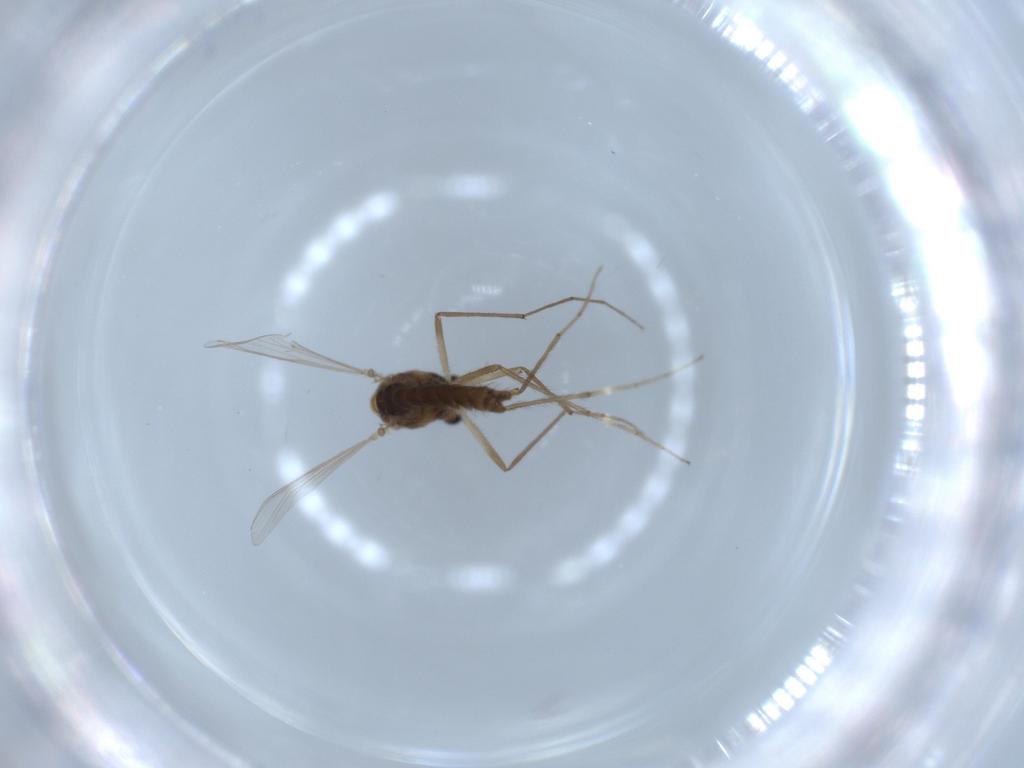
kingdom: Animalia
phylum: Arthropoda
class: Insecta
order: Diptera
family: Chironomidae
